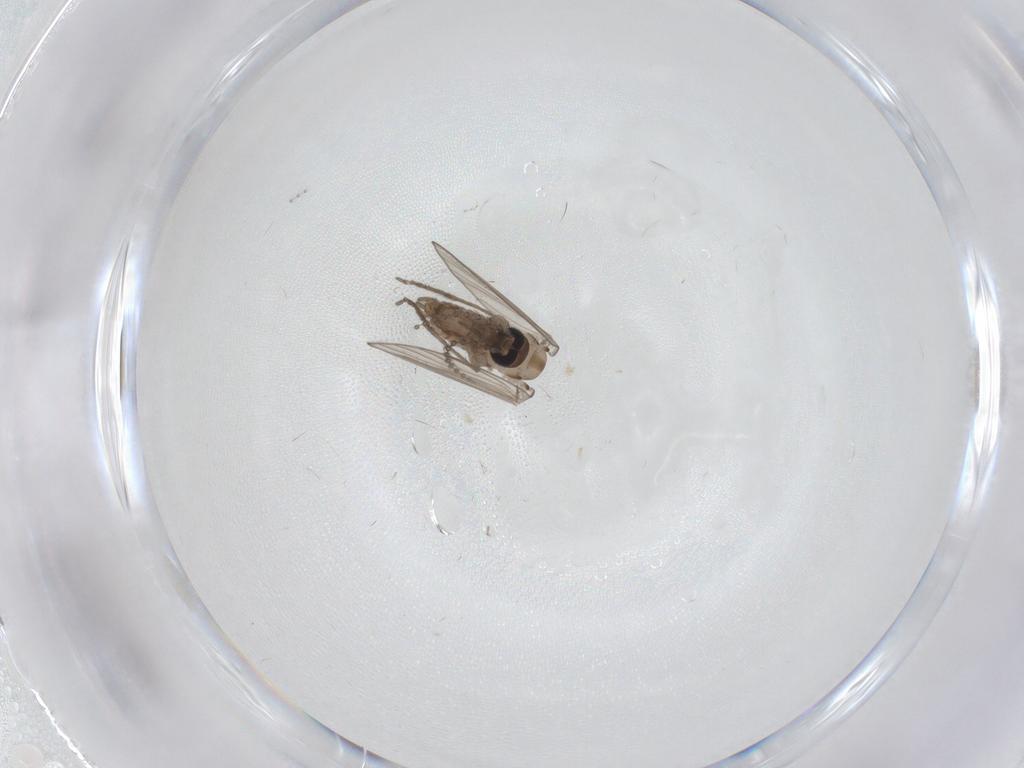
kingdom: Animalia
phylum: Arthropoda
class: Insecta
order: Diptera
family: Psychodidae
